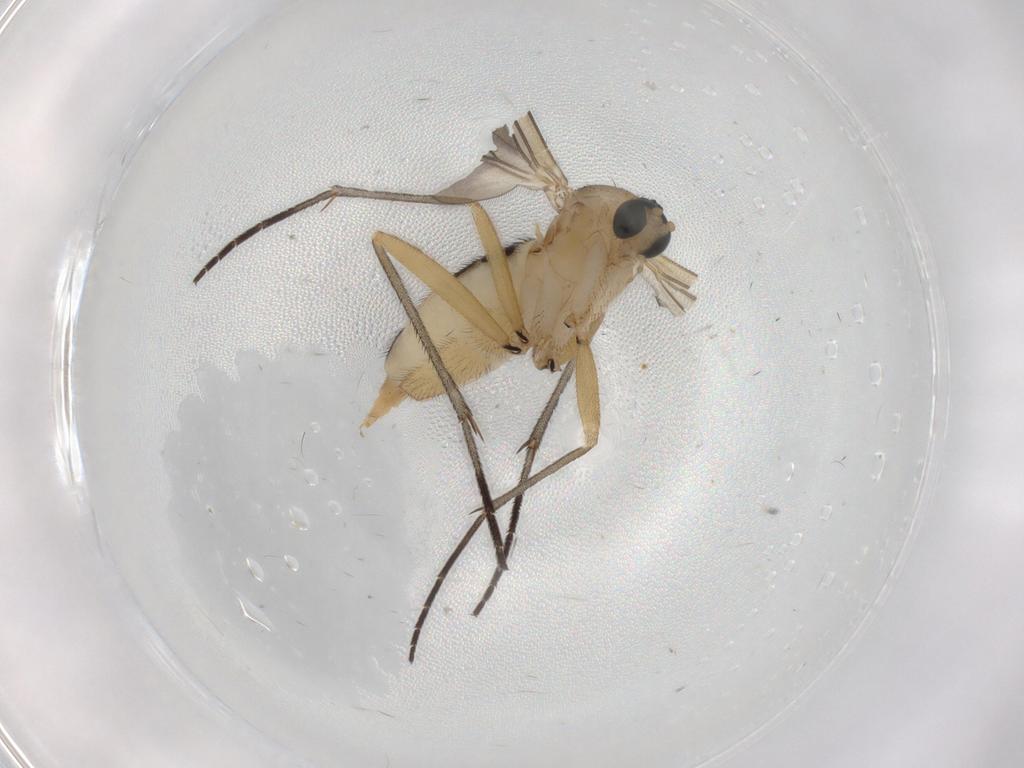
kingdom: Animalia
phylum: Arthropoda
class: Insecta
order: Diptera
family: Sciaridae
